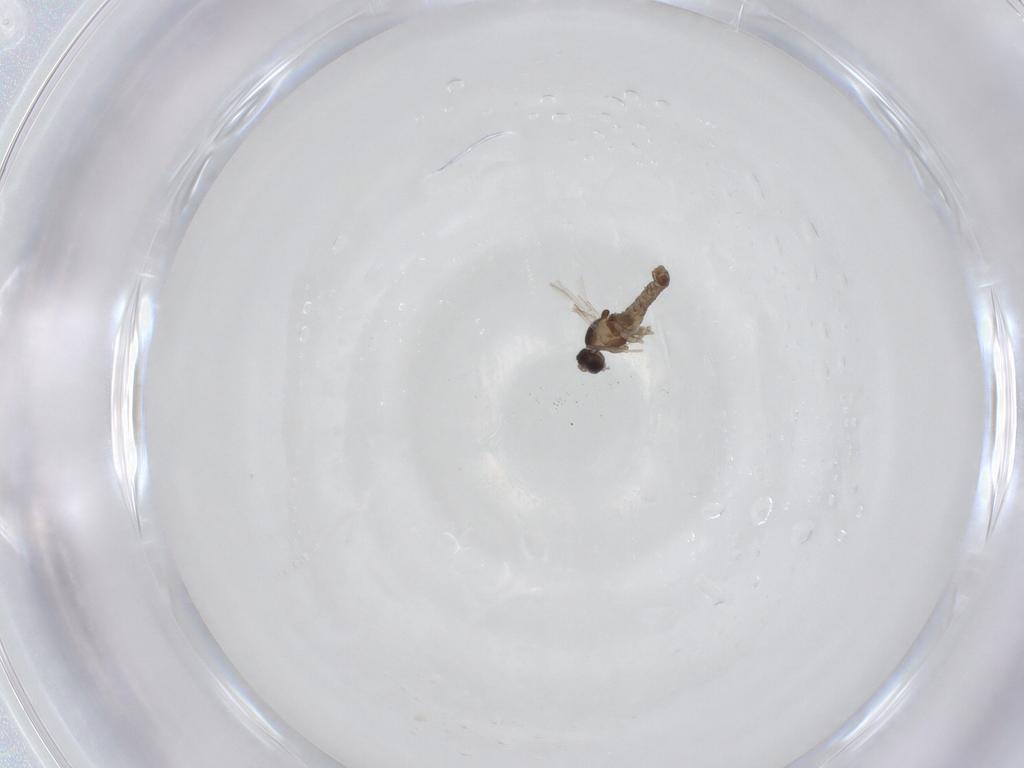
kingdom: Animalia
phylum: Arthropoda
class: Insecta
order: Diptera
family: Cecidomyiidae
